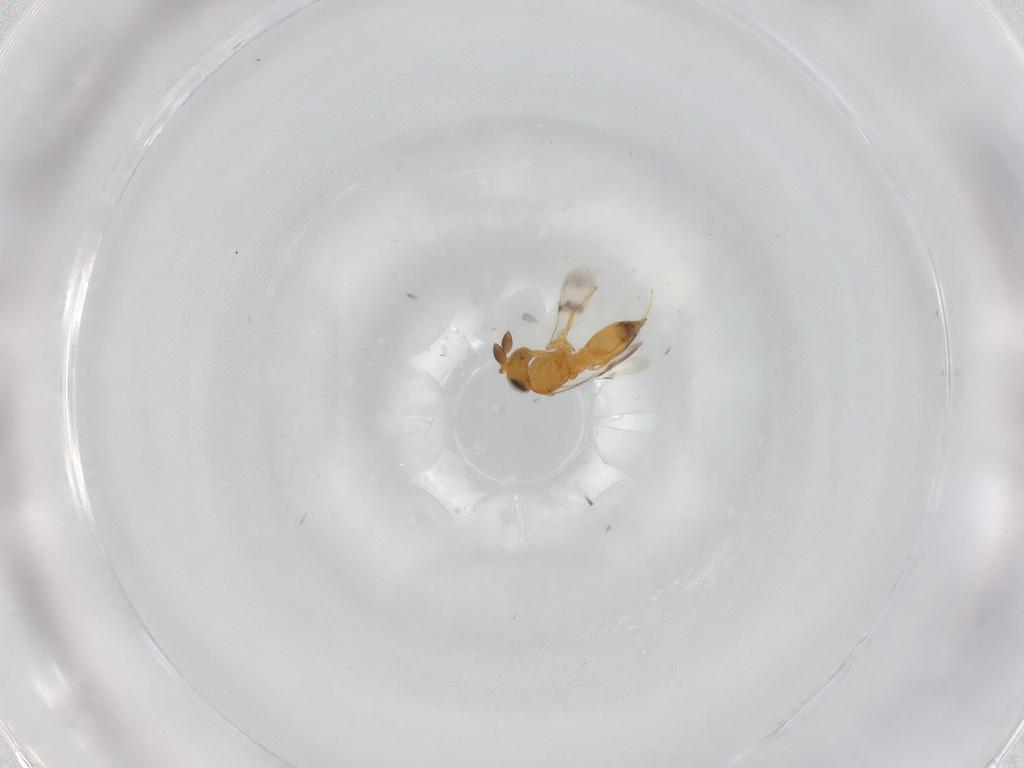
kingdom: Animalia
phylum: Arthropoda
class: Insecta
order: Hymenoptera
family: Scelionidae
